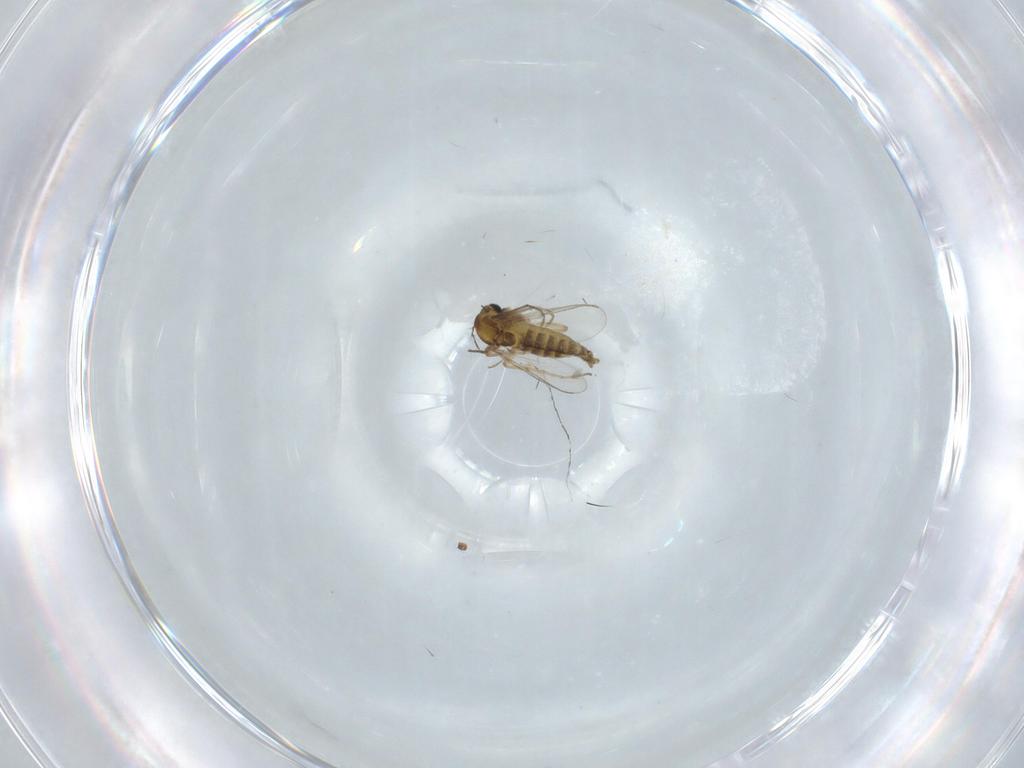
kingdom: Animalia
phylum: Arthropoda
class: Insecta
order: Diptera
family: Chironomidae
